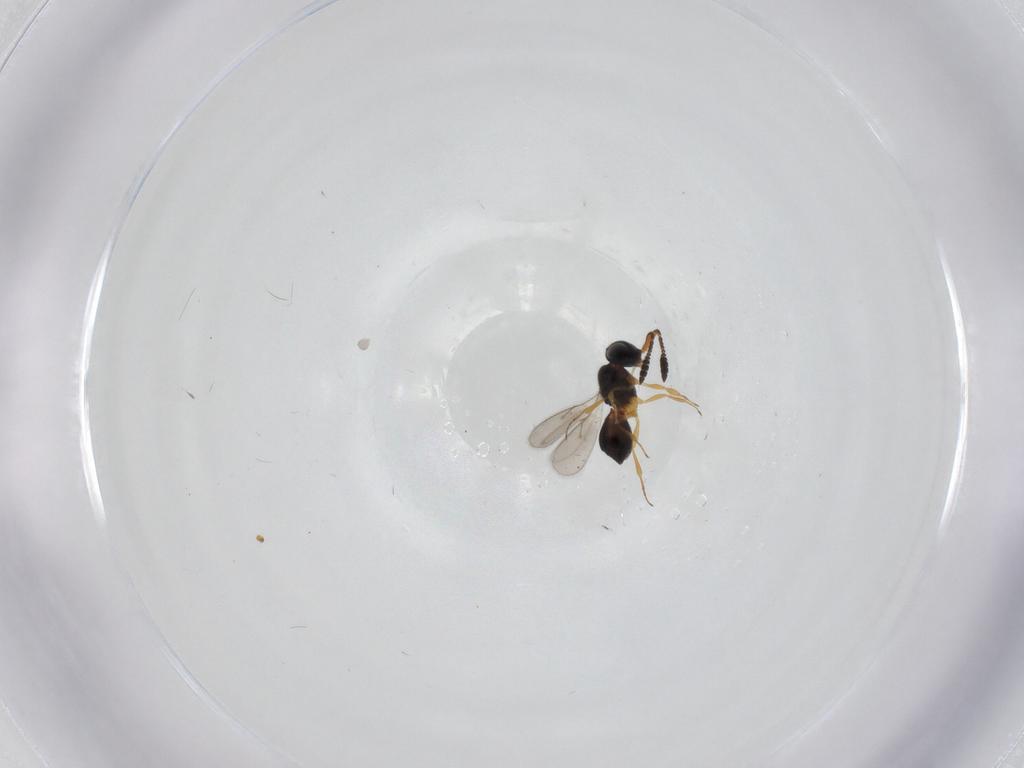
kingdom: Animalia
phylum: Arthropoda
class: Insecta
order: Hymenoptera
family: Scelionidae
